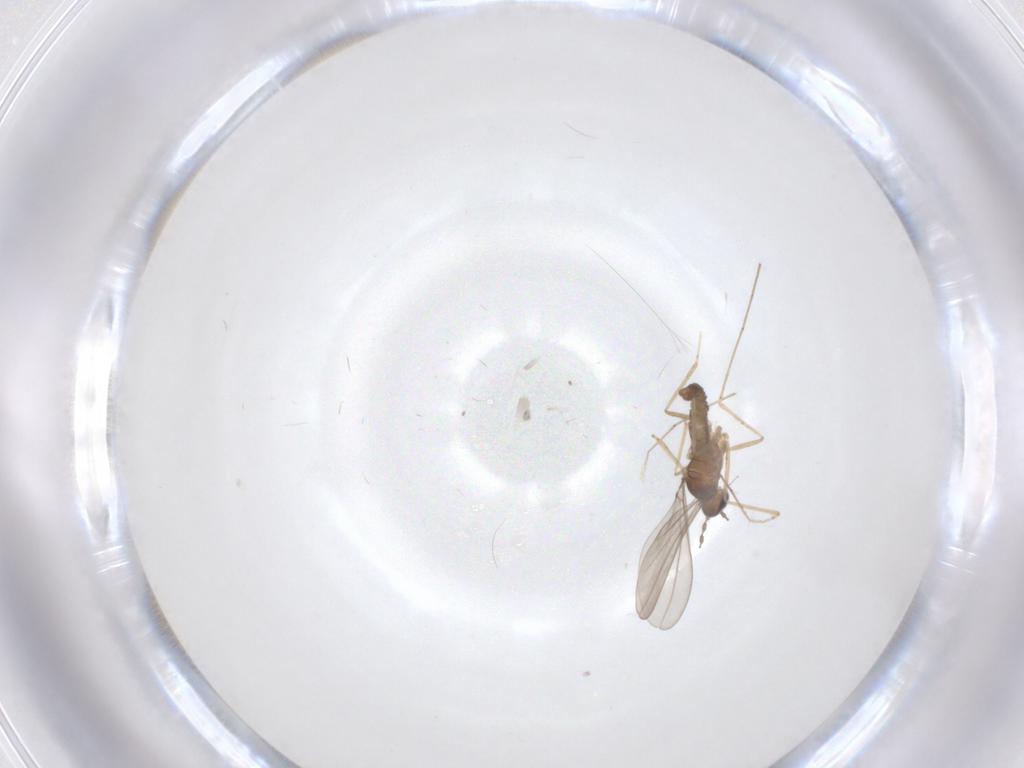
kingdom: Animalia
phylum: Arthropoda
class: Insecta
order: Diptera
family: Cecidomyiidae
